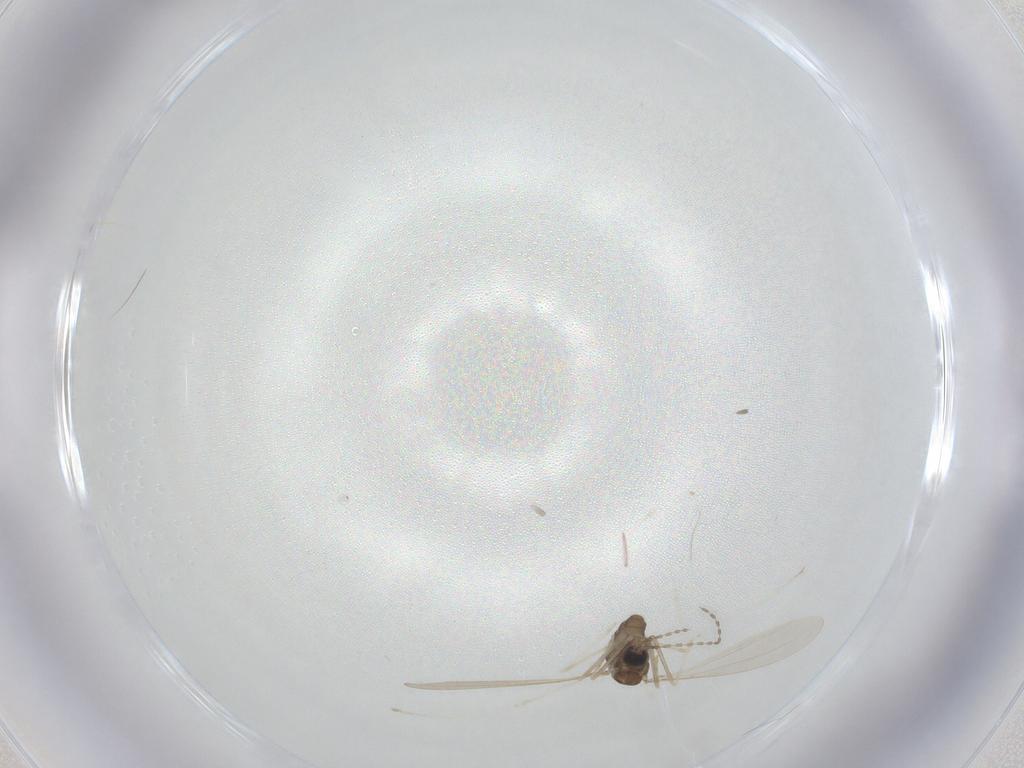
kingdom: Animalia
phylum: Arthropoda
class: Insecta
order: Diptera
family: Cecidomyiidae
